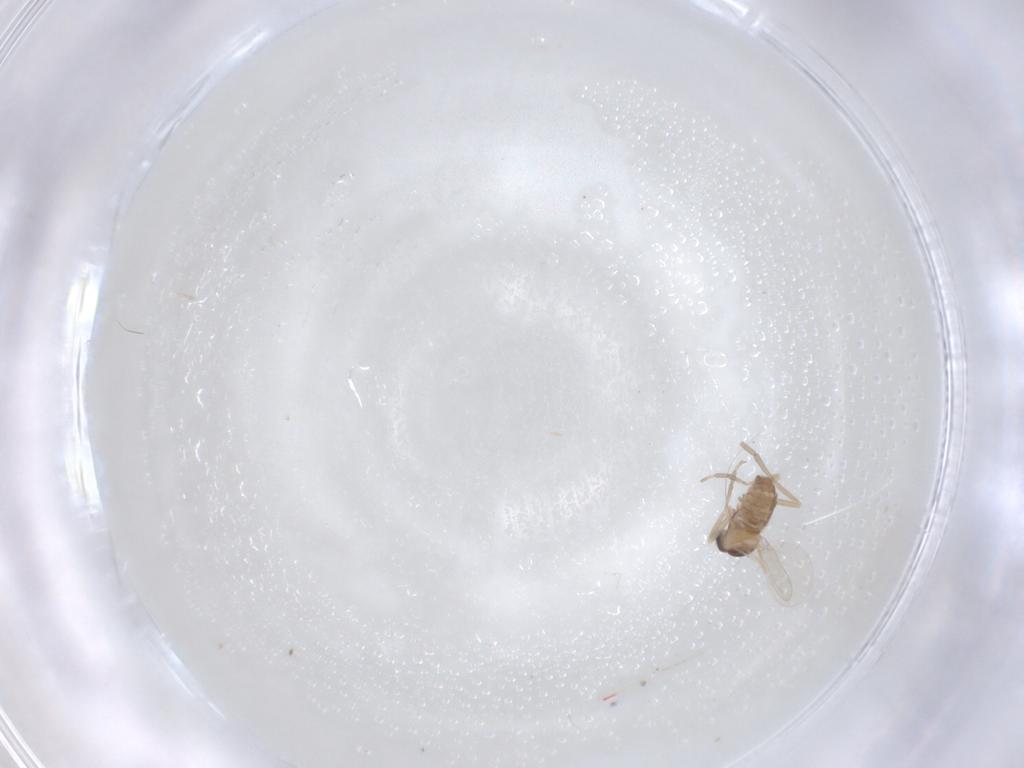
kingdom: Animalia
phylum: Arthropoda
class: Insecta
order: Diptera
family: Cecidomyiidae
